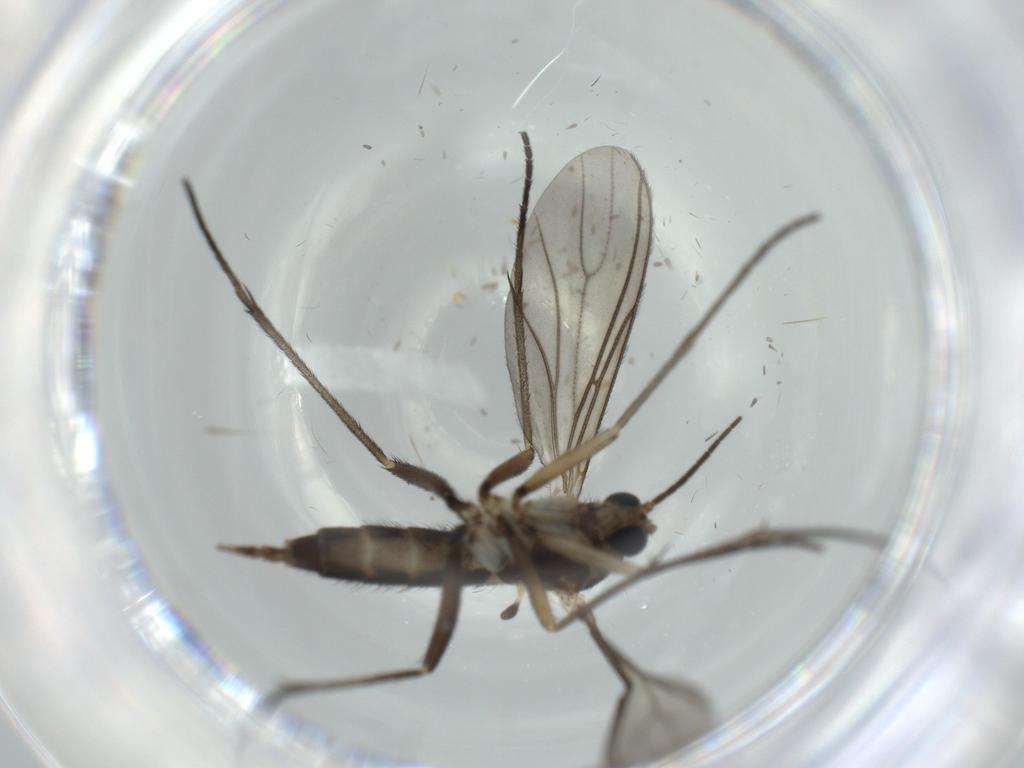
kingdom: Animalia
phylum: Arthropoda
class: Insecta
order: Diptera
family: Sciaridae
